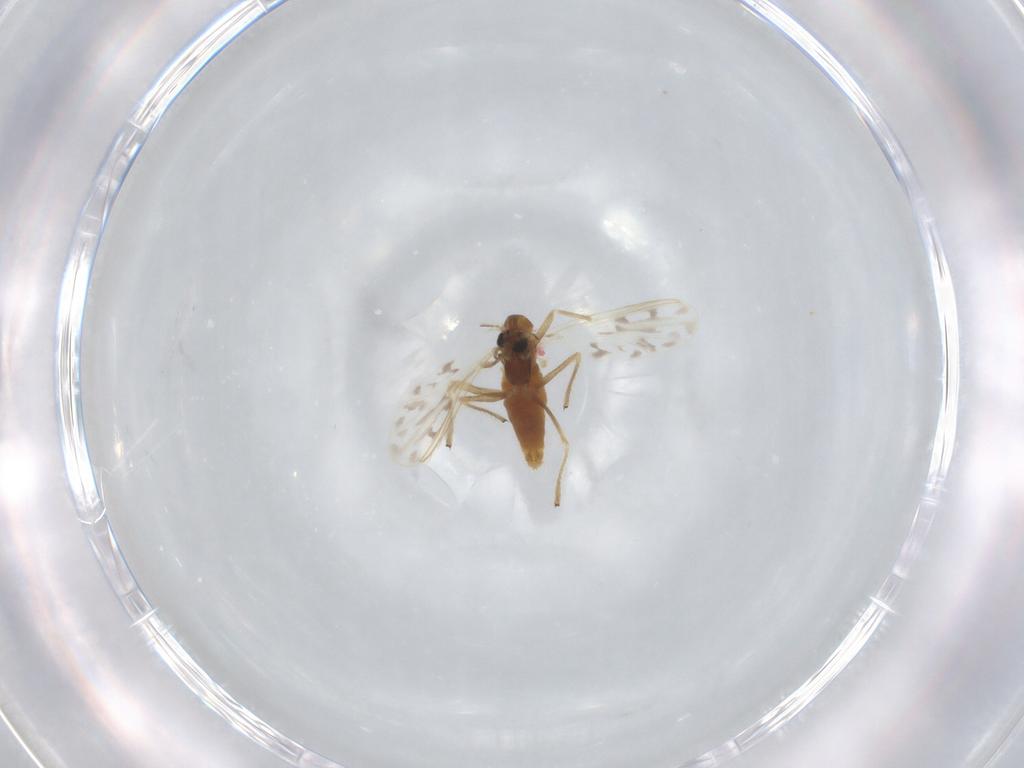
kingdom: Animalia
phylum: Arthropoda
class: Insecta
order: Diptera
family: Chironomidae
